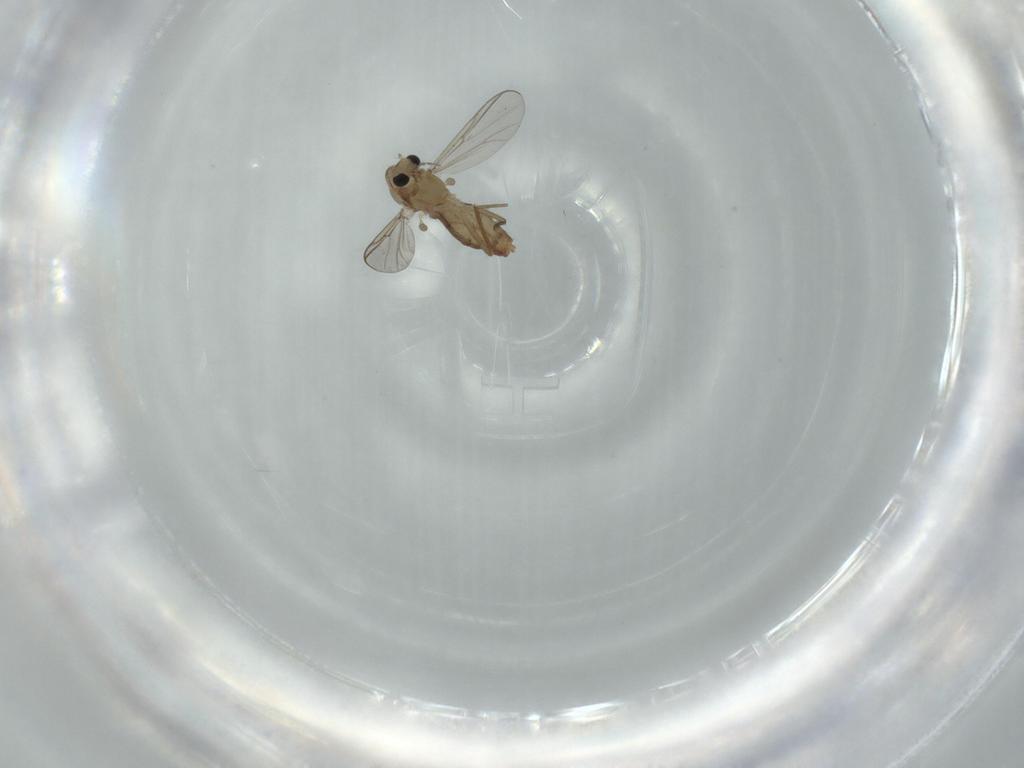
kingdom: Animalia
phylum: Arthropoda
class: Insecta
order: Diptera
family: Chironomidae
